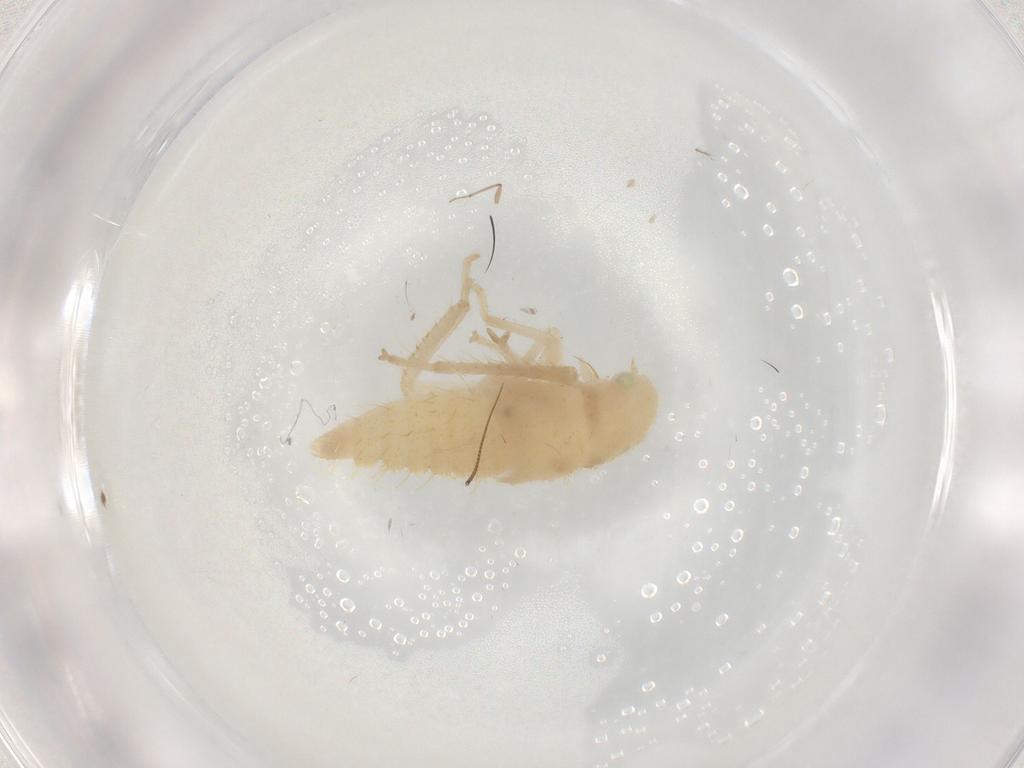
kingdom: Animalia
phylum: Arthropoda
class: Insecta
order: Hemiptera
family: Cicadellidae
